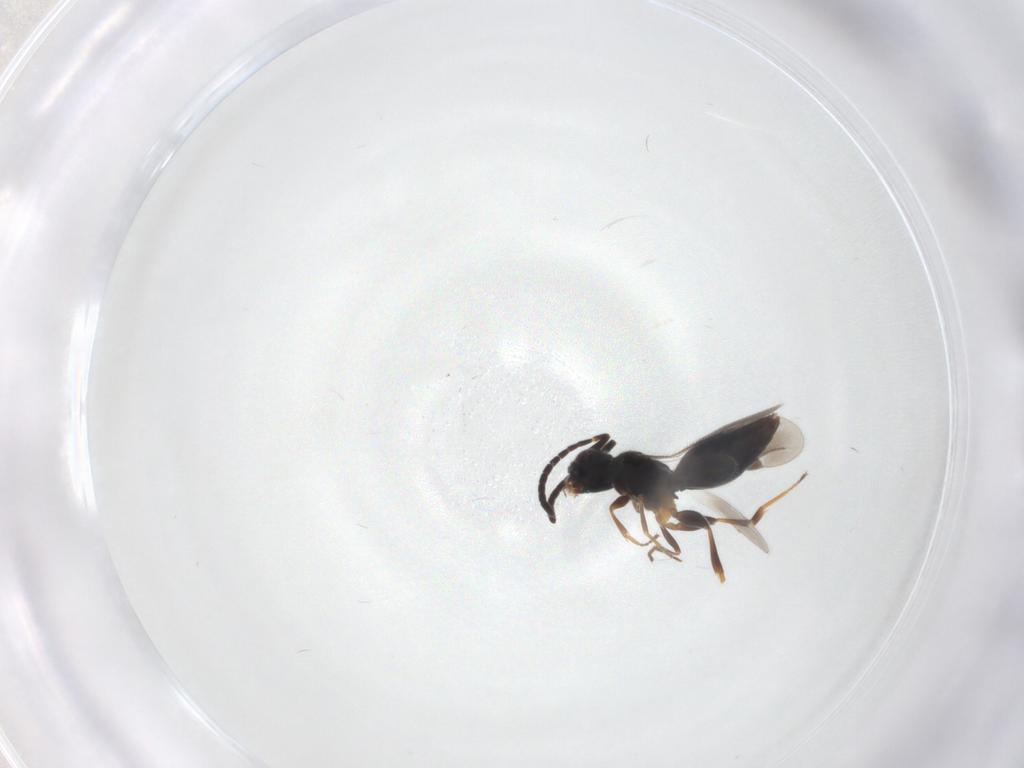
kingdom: Animalia
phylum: Arthropoda
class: Insecta
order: Hymenoptera
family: Megaspilidae
